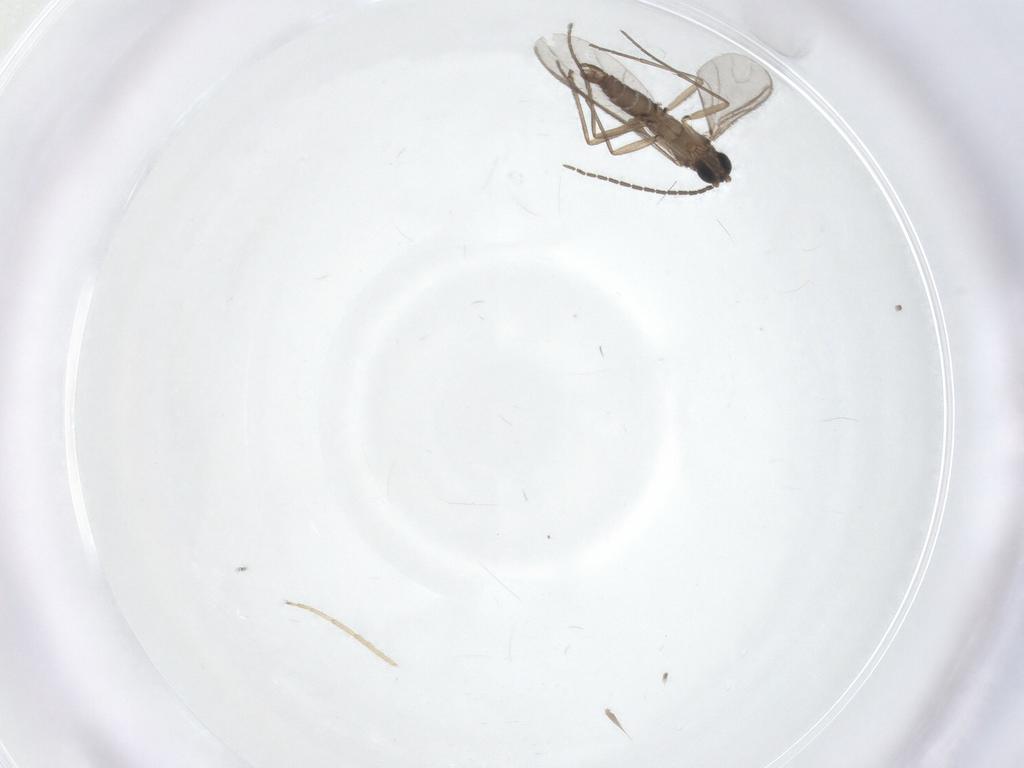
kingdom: Animalia
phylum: Arthropoda
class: Insecta
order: Diptera
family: Sciaridae
